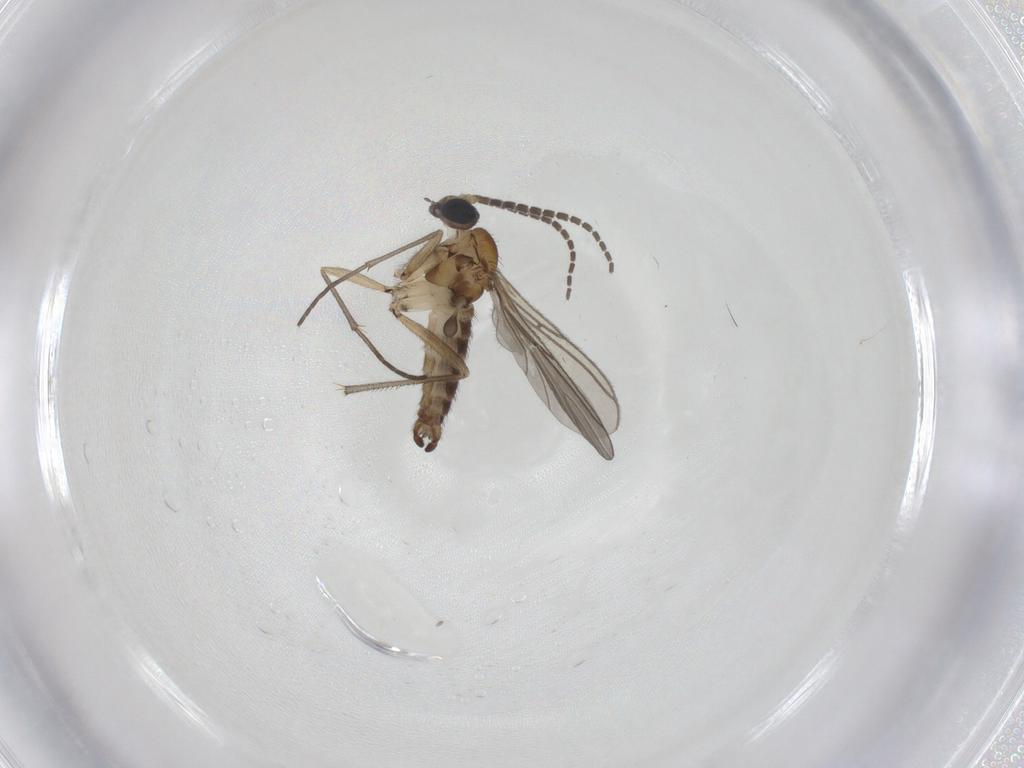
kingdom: Animalia
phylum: Arthropoda
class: Insecta
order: Diptera
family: Sciaridae
